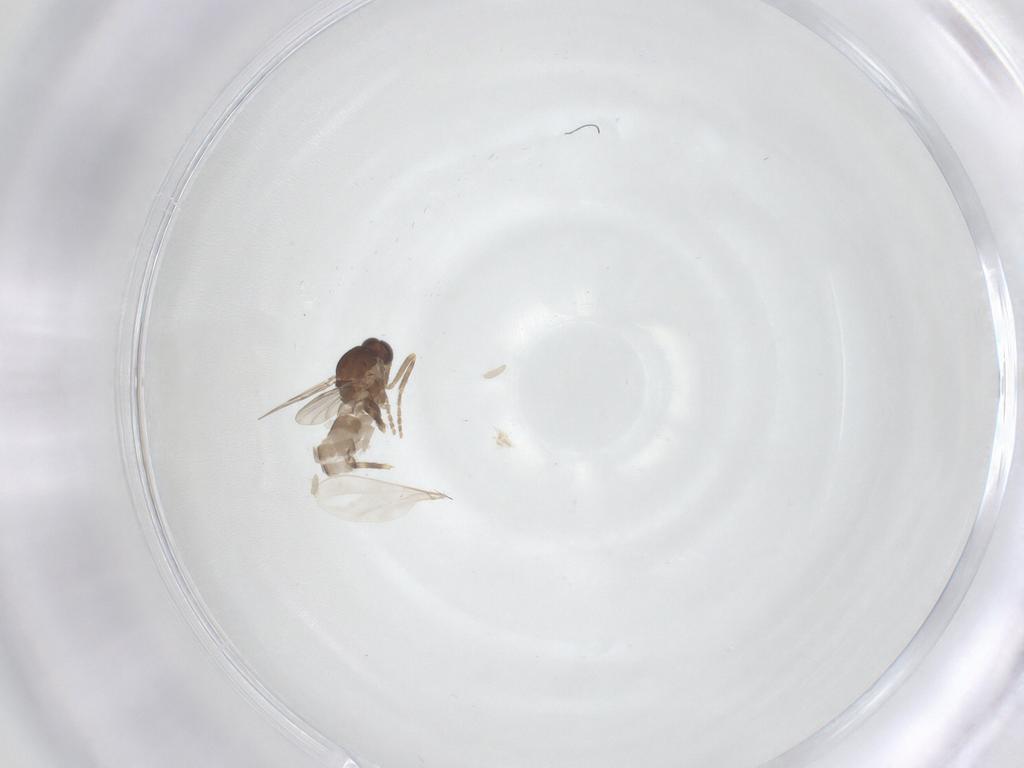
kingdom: Animalia
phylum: Arthropoda
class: Insecta
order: Diptera
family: Ceratopogonidae
